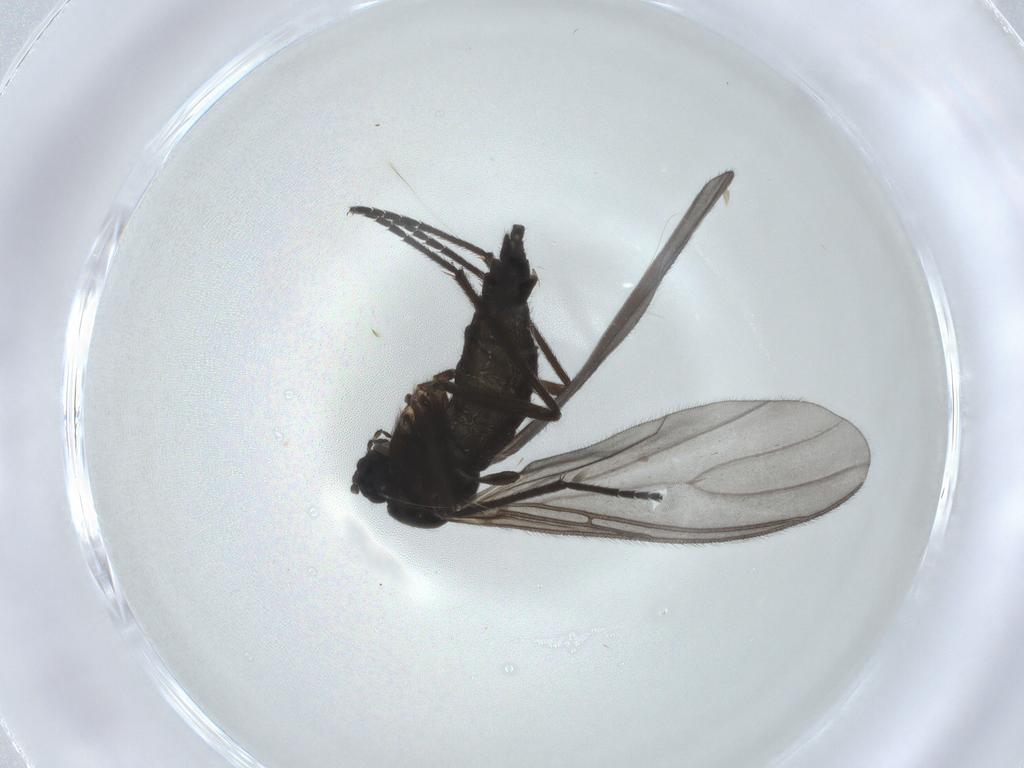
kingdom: Animalia
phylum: Arthropoda
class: Insecta
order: Diptera
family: Sciaridae
